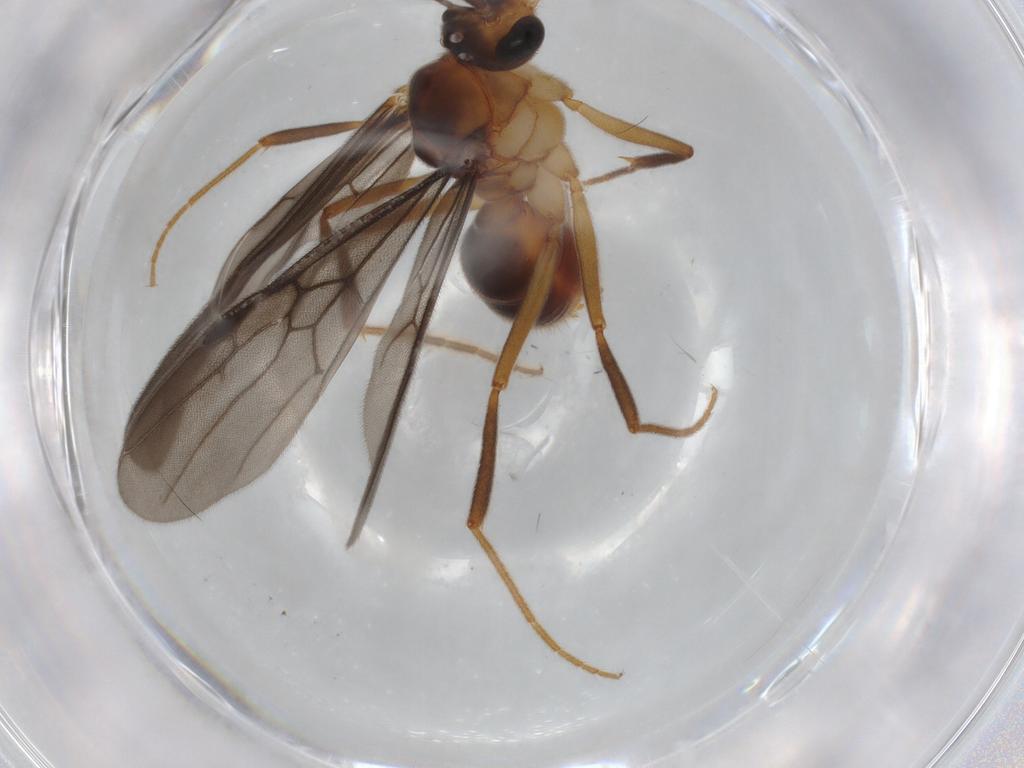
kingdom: Animalia
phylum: Arthropoda
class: Insecta
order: Hymenoptera
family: Formicidae
